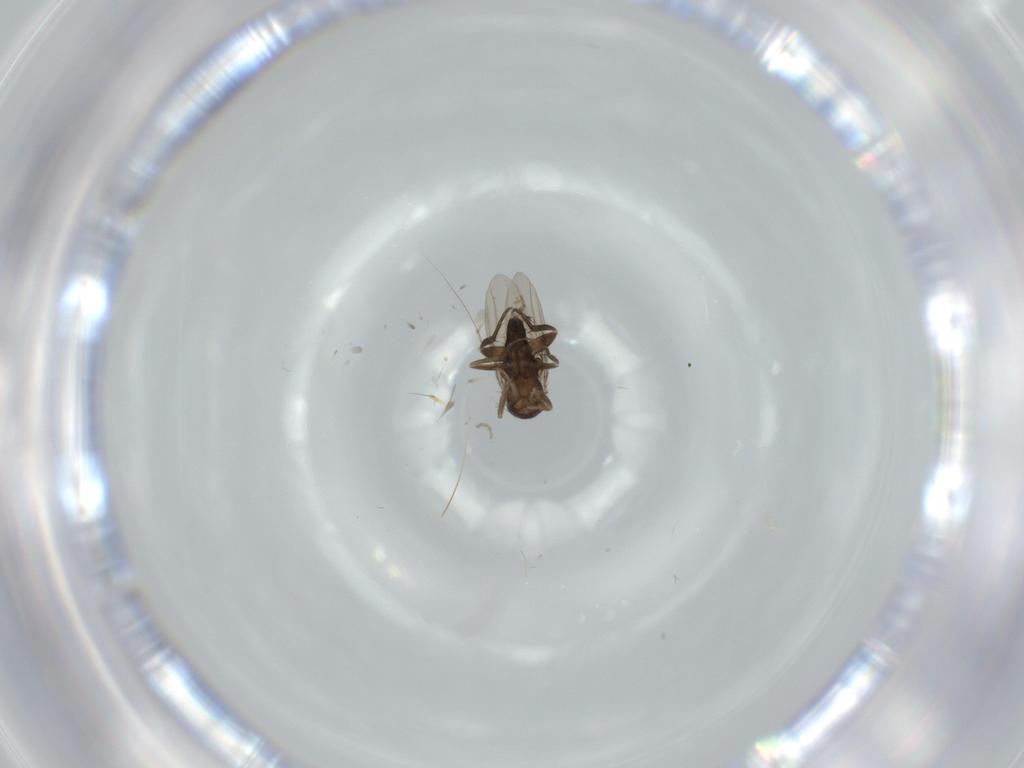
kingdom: Animalia
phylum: Arthropoda
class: Insecta
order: Diptera
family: Phoridae
